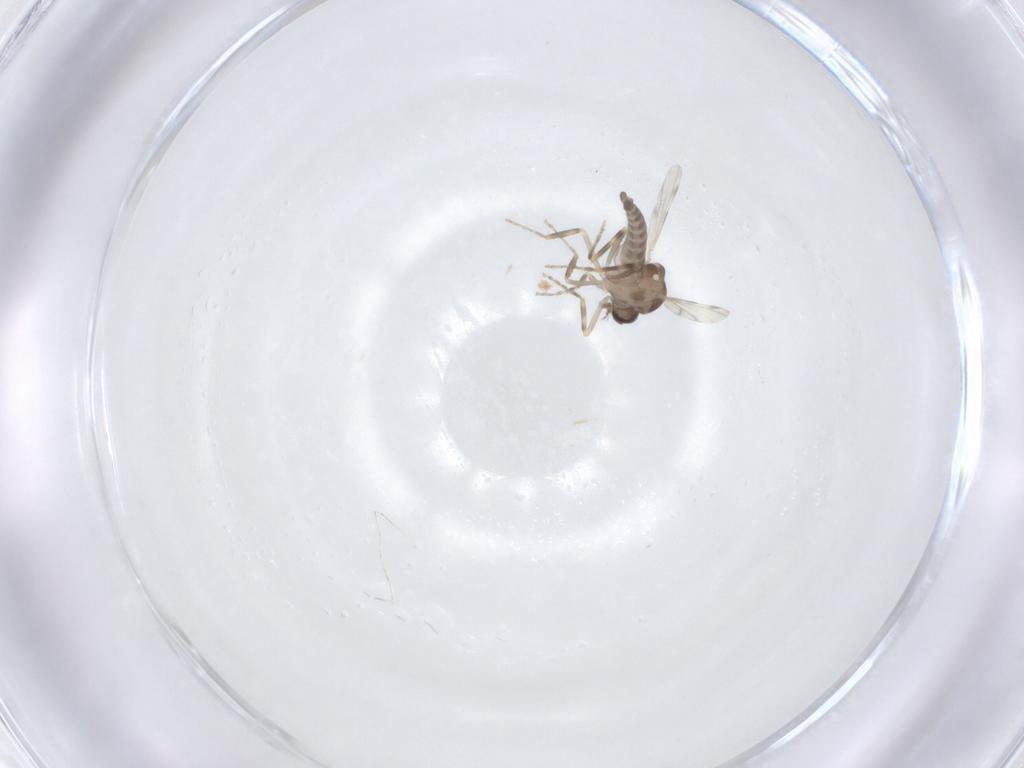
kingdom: Animalia
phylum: Arthropoda
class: Insecta
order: Diptera
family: Ceratopogonidae
